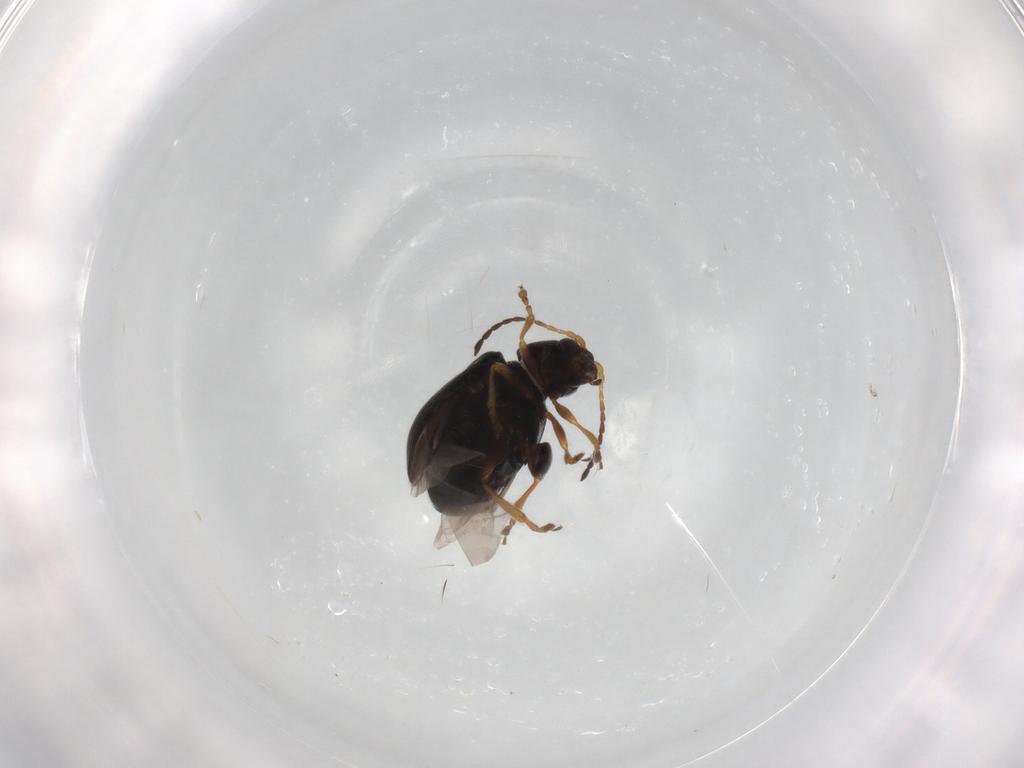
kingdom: Animalia
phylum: Arthropoda
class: Insecta
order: Coleoptera
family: Chrysomelidae
